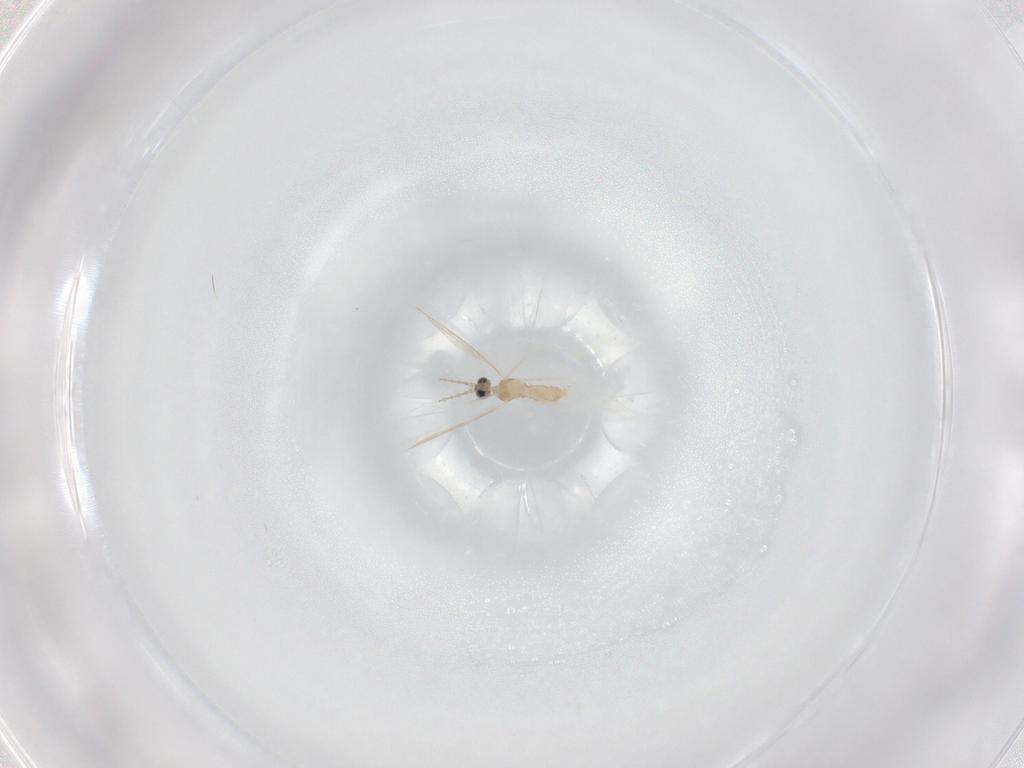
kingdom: Animalia
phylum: Arthropoda
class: Insecta
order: Diptera
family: Cecidomyiidae
